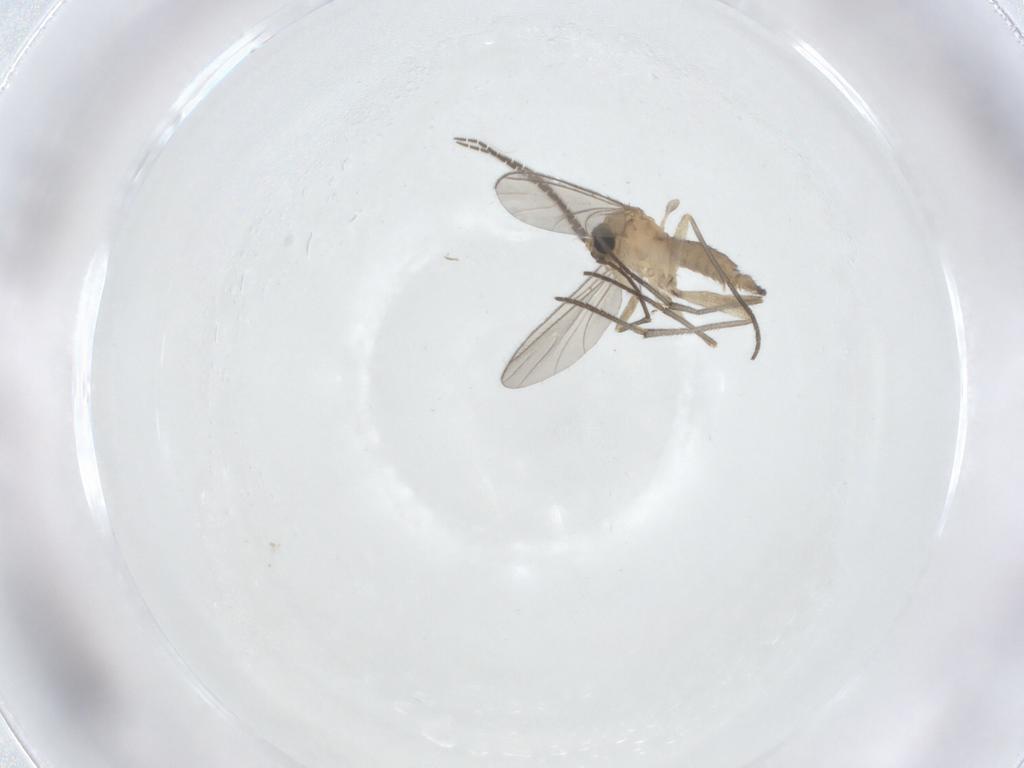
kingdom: Animalia
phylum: Arthropoda
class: Insecta
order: Diptera
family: Sciaridae
